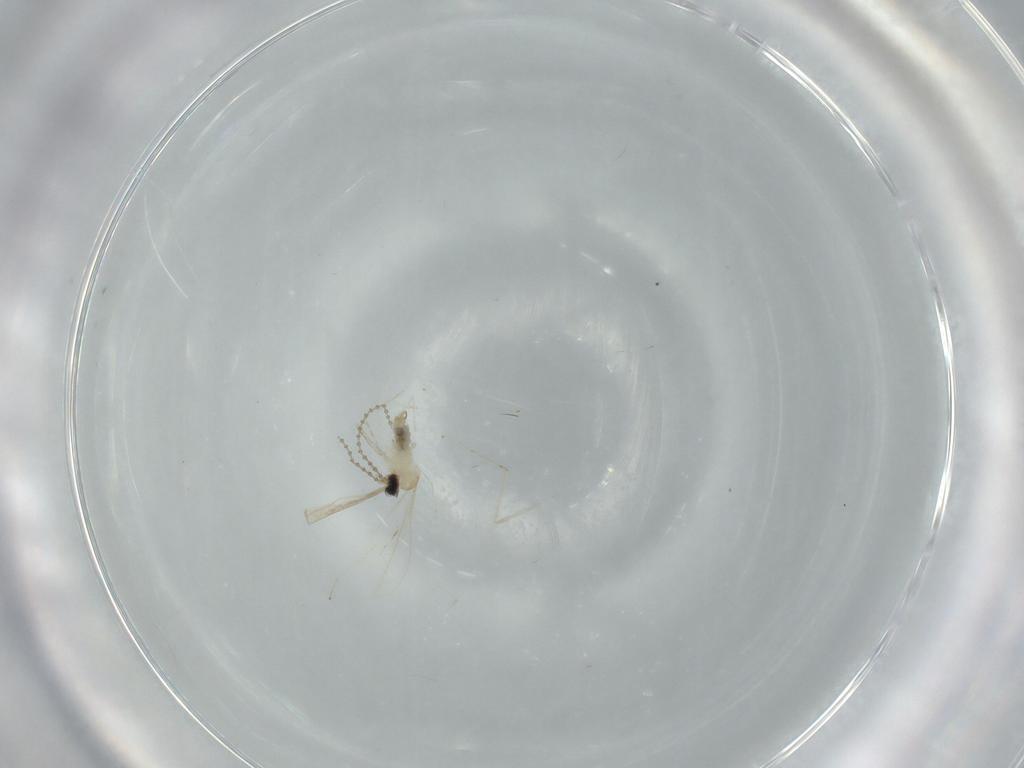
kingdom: Animalia
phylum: Arthropoda
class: Insecta
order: Diptera
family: Cecidomyiidae
